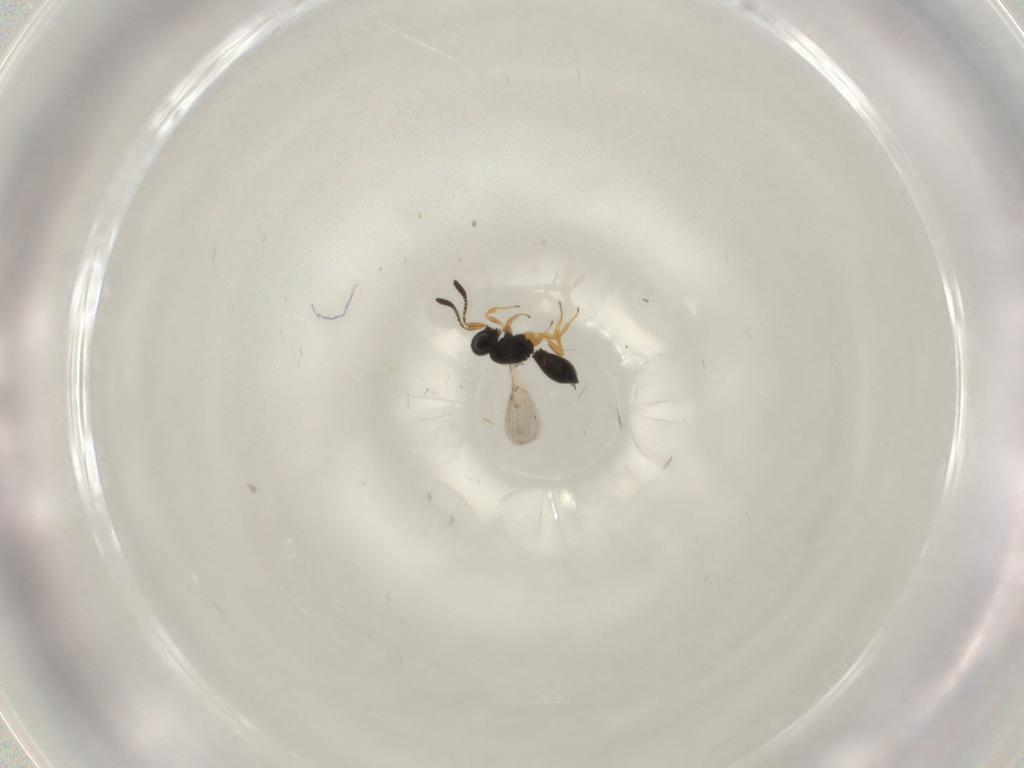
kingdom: Animalia
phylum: Arthropoda
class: Insecta
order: Hymenoptera
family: Scelionidae
